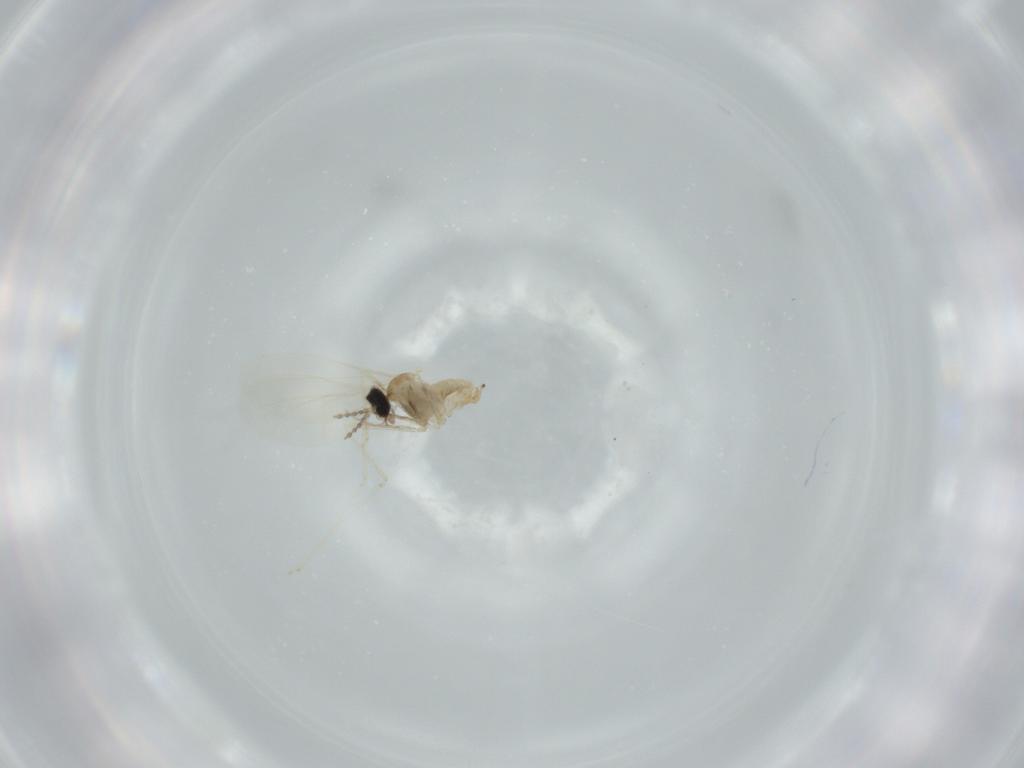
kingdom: Animalia
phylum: Arthropoda
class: Insecta
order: Diptera
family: Cecidomyiidae
